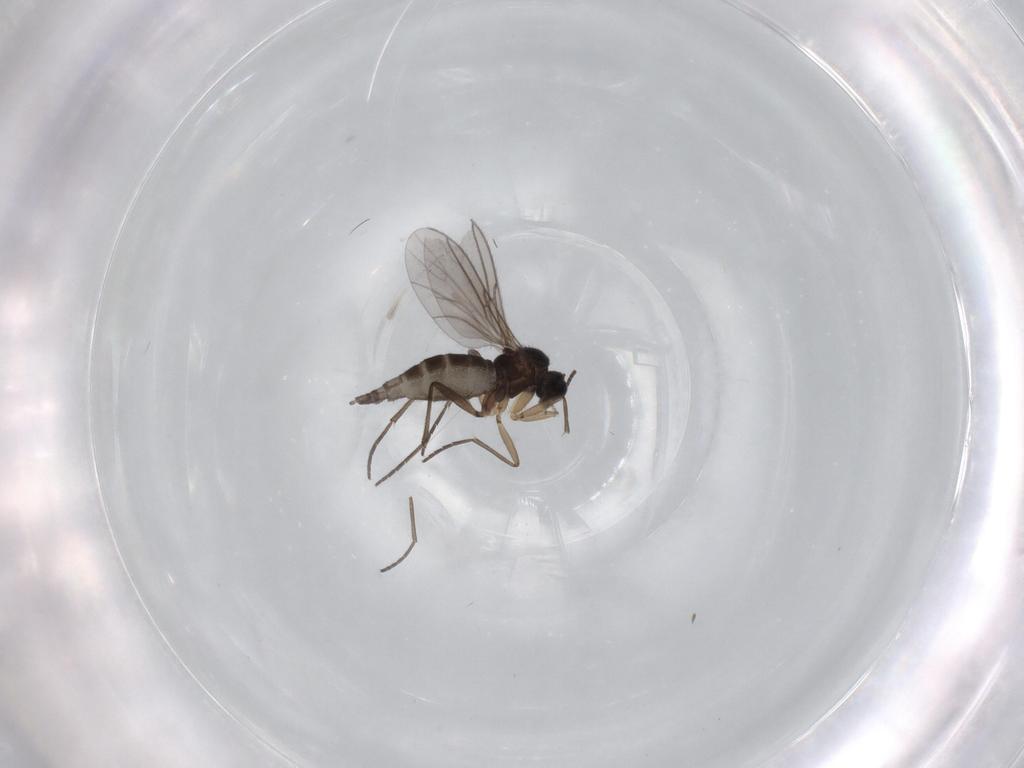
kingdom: Animalia
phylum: Arthropoda
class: Insecta
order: Diptera
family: Sciaridae
